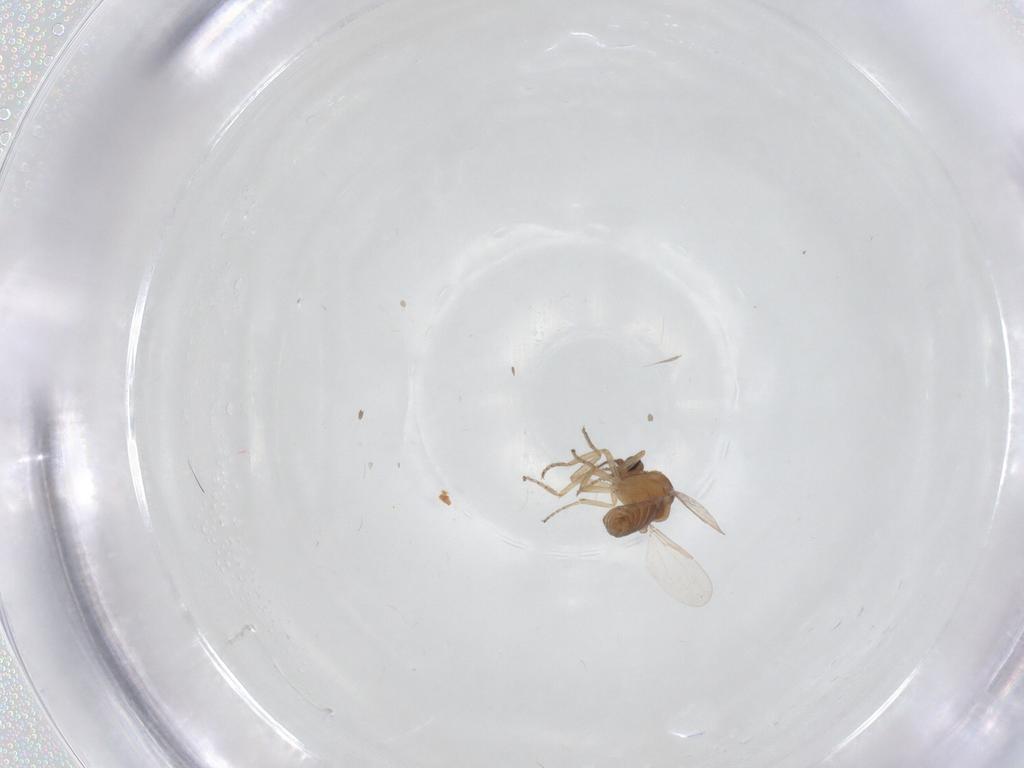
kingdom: Animalia
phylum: Arthropoda
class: Insecta
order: Diptera
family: Ceratopogonidae
